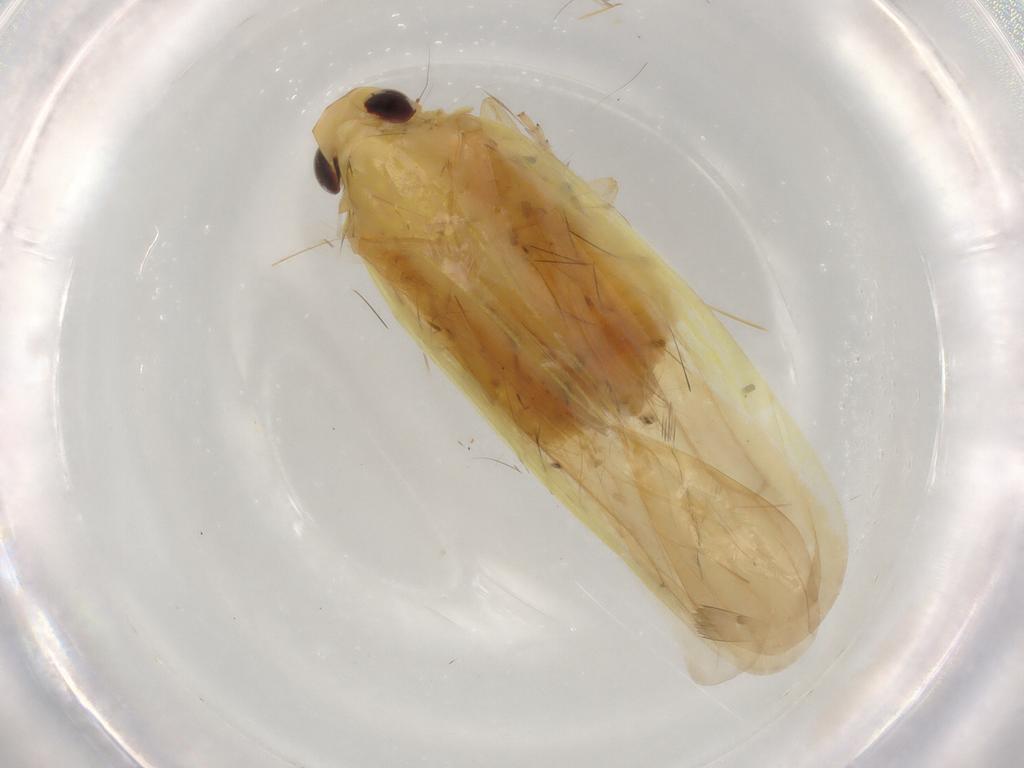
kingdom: Animalia
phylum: Arthropoda
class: Insecta
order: Hemiptera
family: Achilidae
